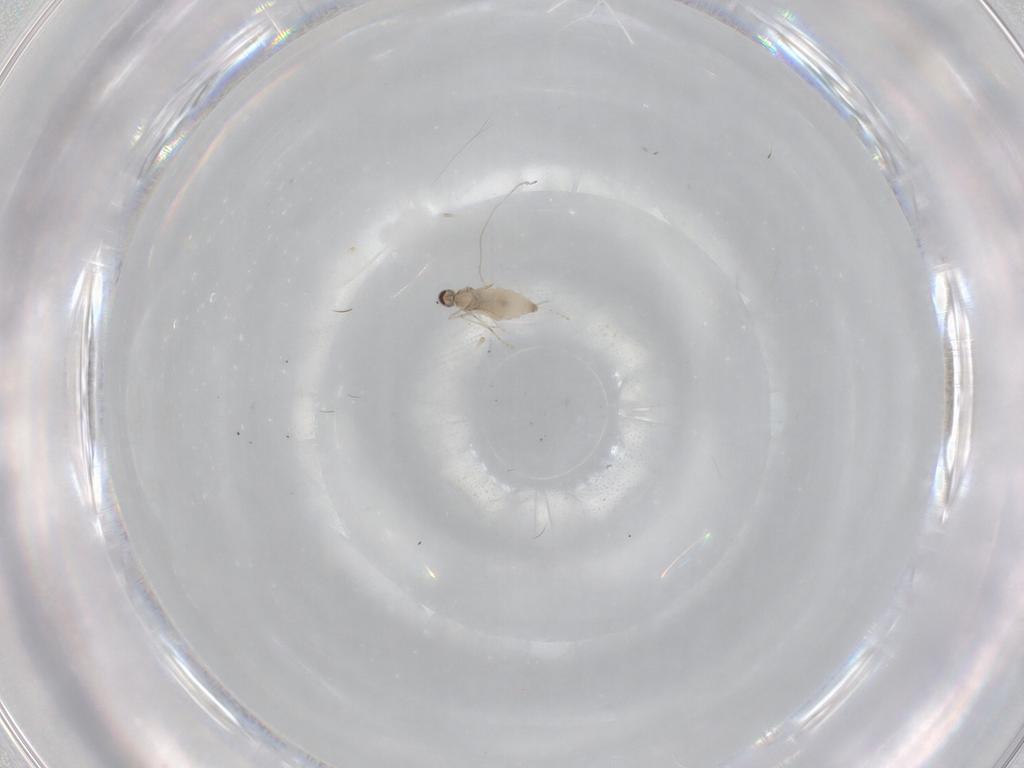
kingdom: Animalia
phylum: Arthropoda
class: Insecta
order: Diptera
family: Cecidomyiidae
